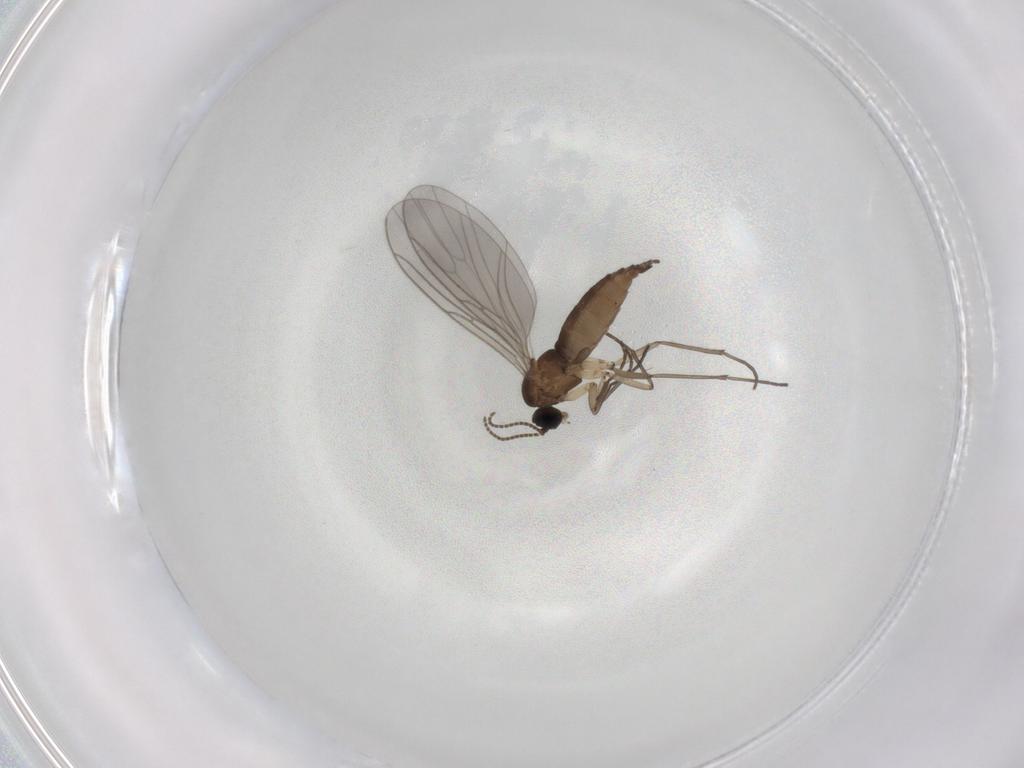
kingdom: Animalia
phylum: Arthropoda
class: Insecta
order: Diptera
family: Sciaridae
